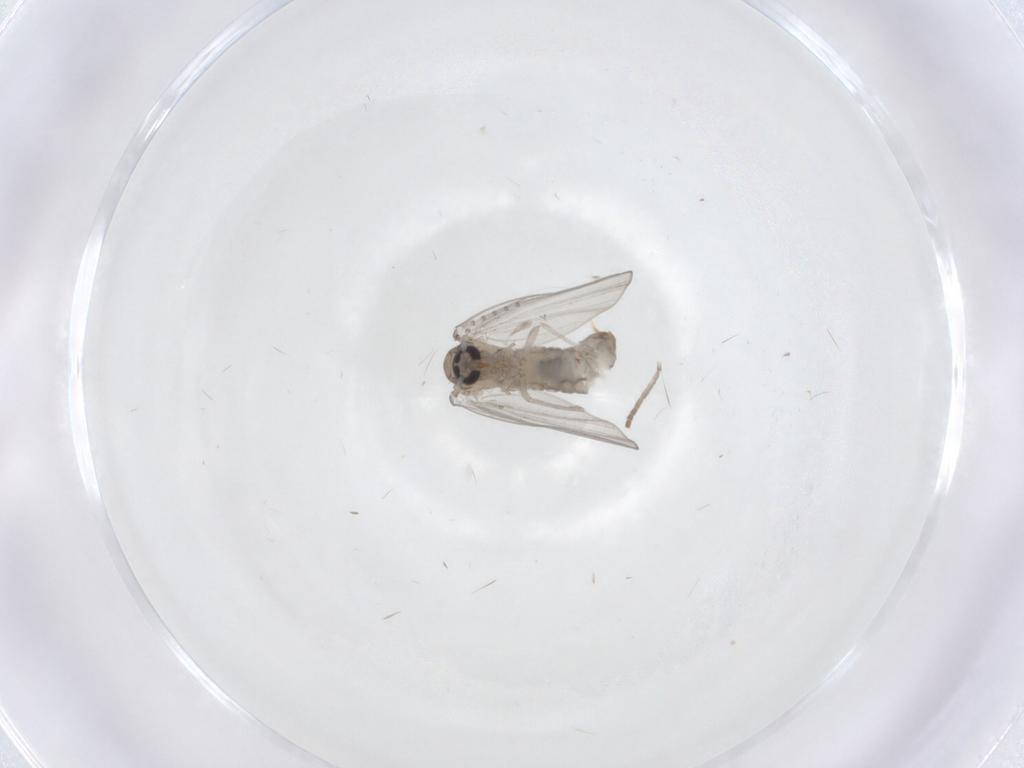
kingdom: Animalia
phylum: Arthropoda
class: Insecta
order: Diptera
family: Psychodidae
